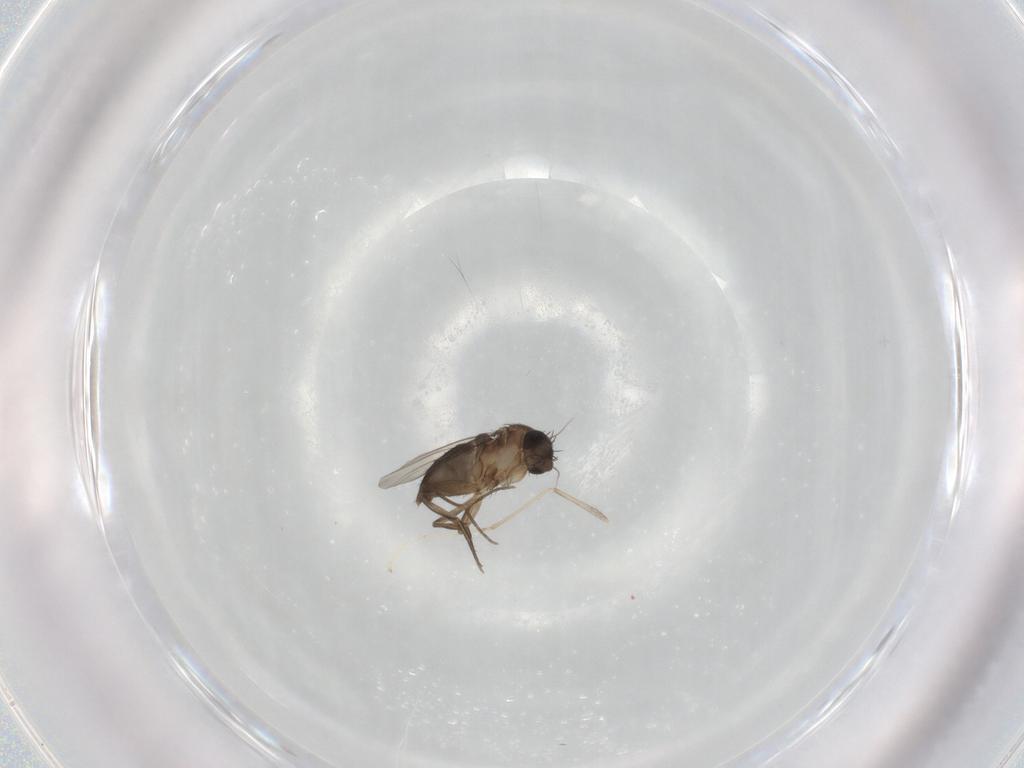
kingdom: Animalia
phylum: Arthropoda
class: Insecta
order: Diptera
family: Phoridae
